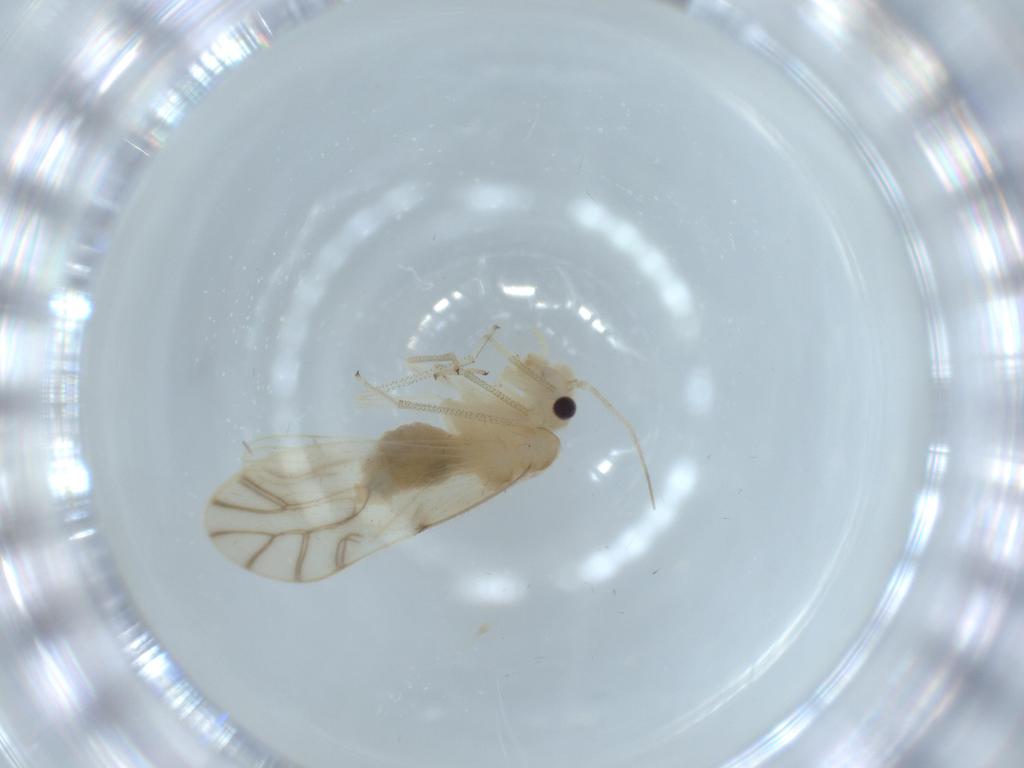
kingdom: Animalia
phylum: Arthropoda
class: Insecta
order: Psocodea
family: Caeciliusidae
